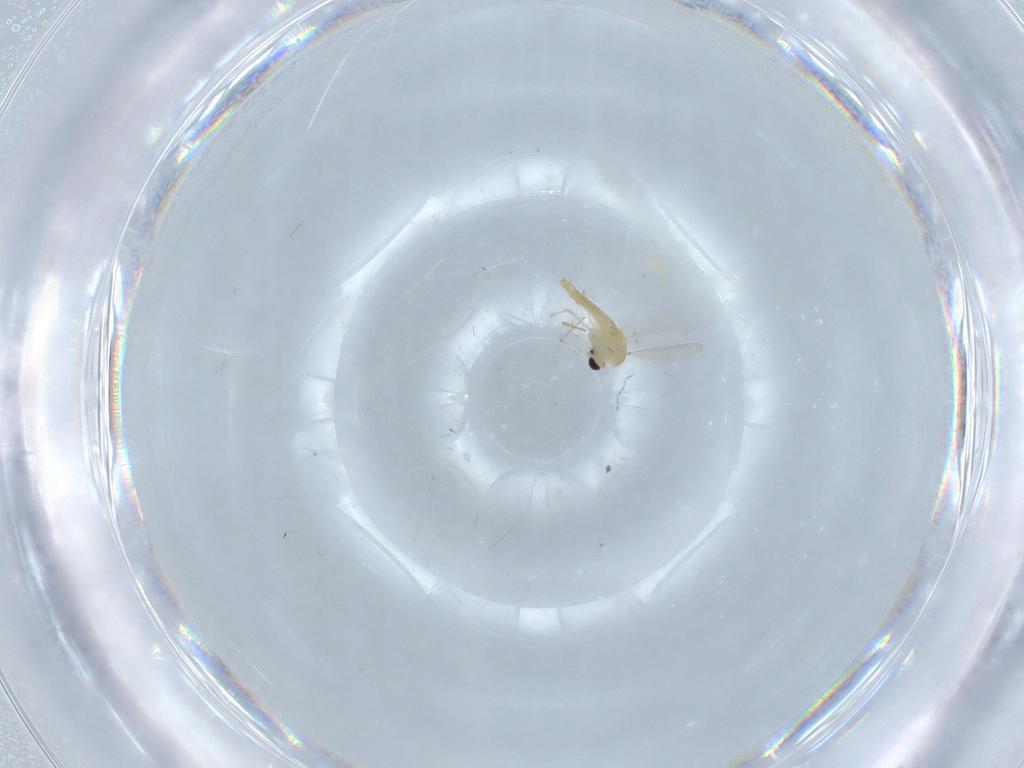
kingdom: Animalia
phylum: Arthropoda
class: Insecta
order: Diptera
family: Chironomidae
